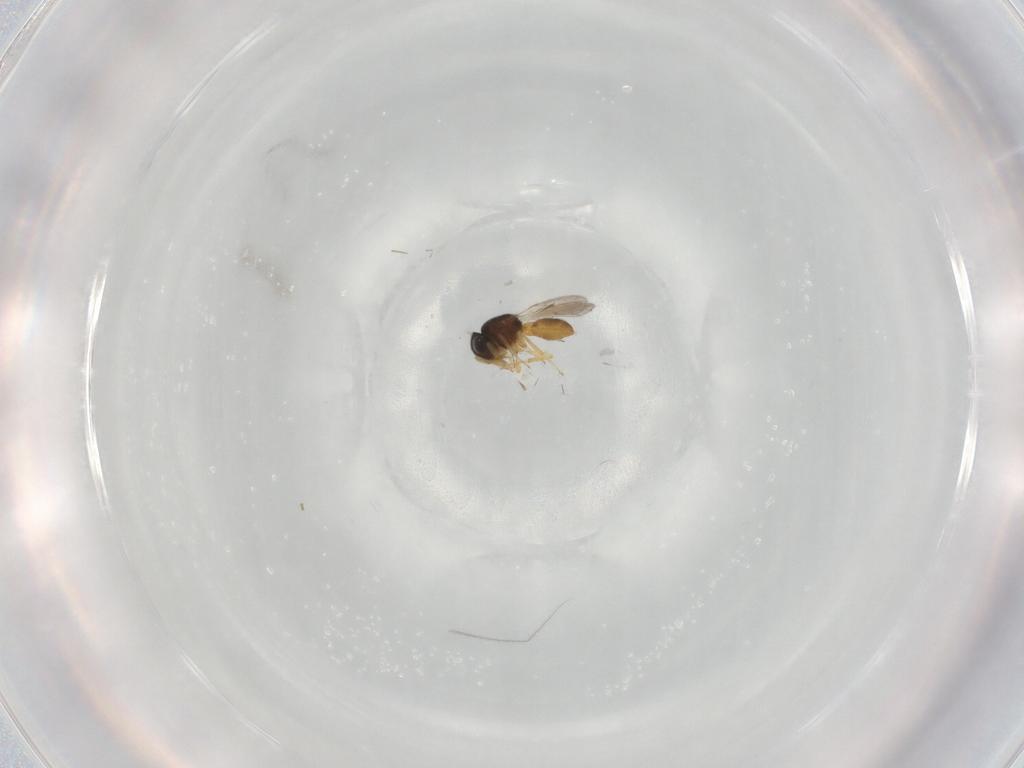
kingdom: Animalia
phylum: Arthropoda
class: Insecta
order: Hymenoptera
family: Scelionidae
